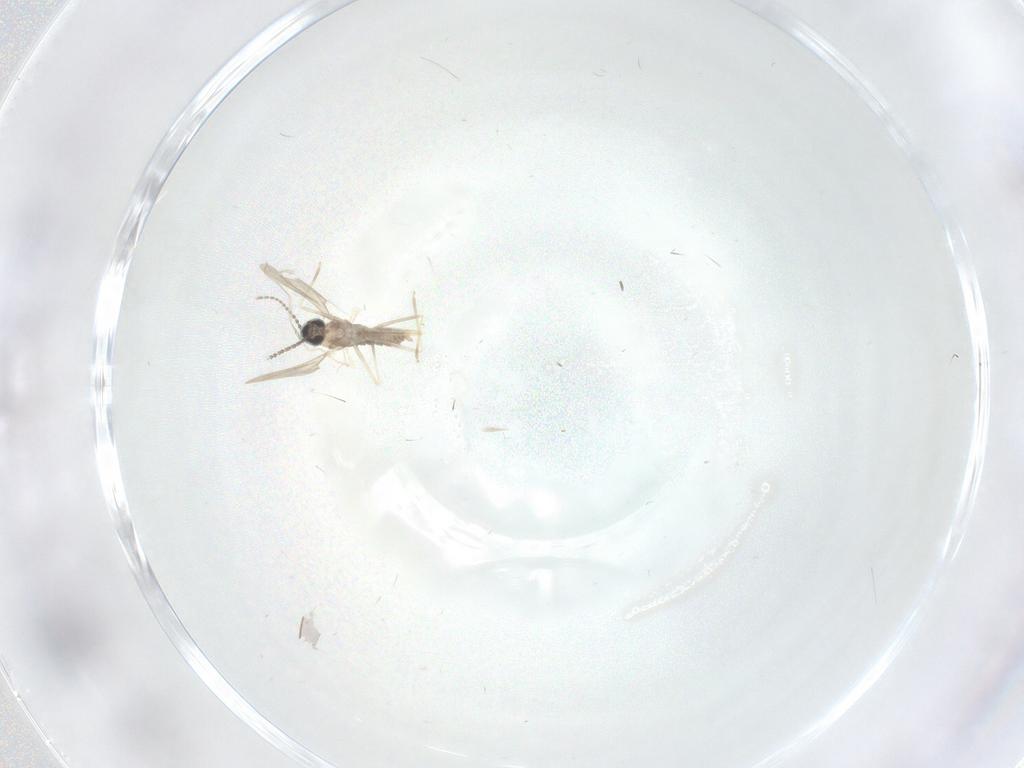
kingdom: Animalia
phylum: Arthropoda
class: Insecta
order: Diptera
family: Cecidomyiidae
